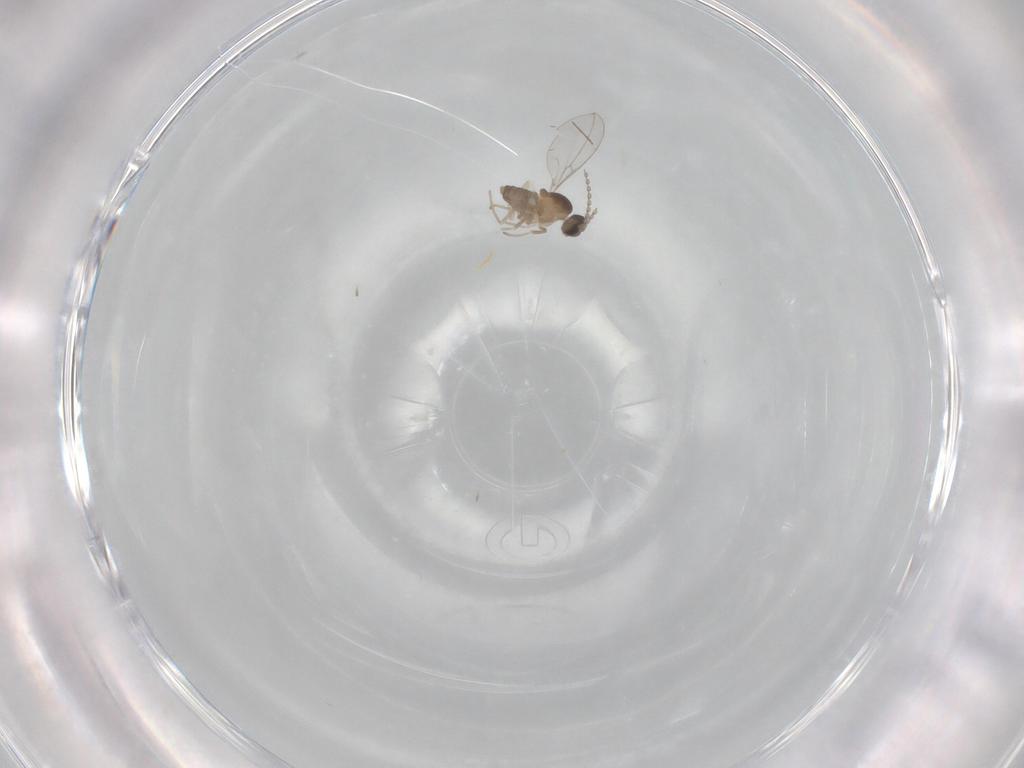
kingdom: Animalia
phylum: Arthropoda
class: Insecta
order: Diptera
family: Cecidomyiidae
